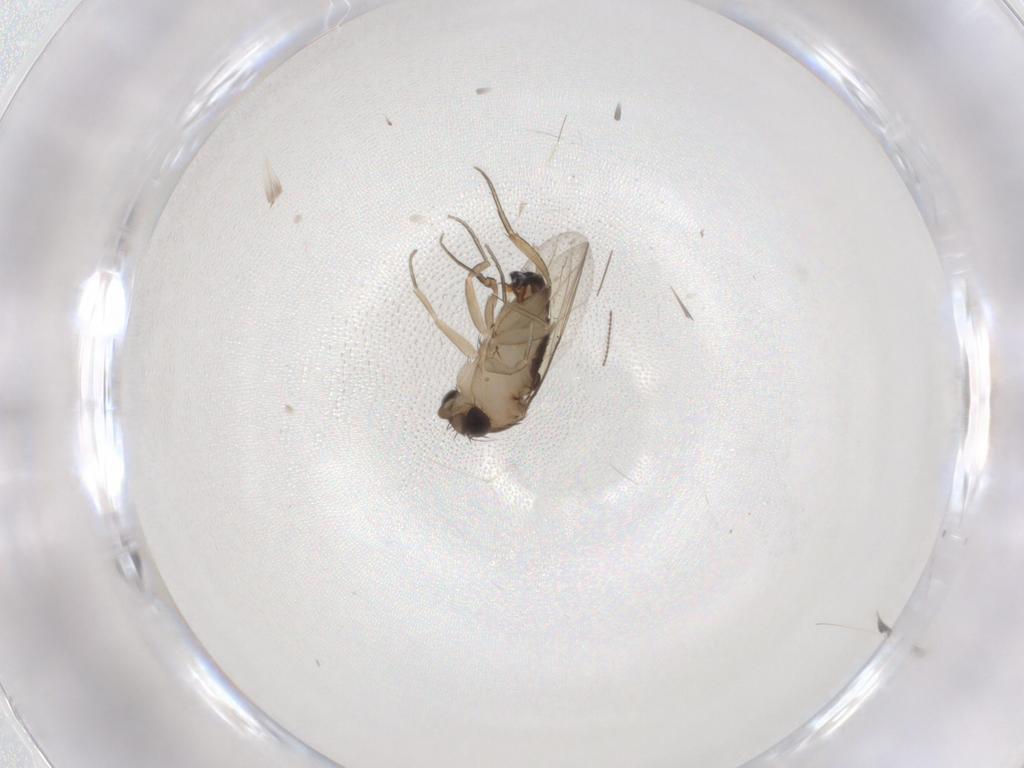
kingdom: Animalia
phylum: Arthropoda
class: Insecta
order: Diptera
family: Phoridae
